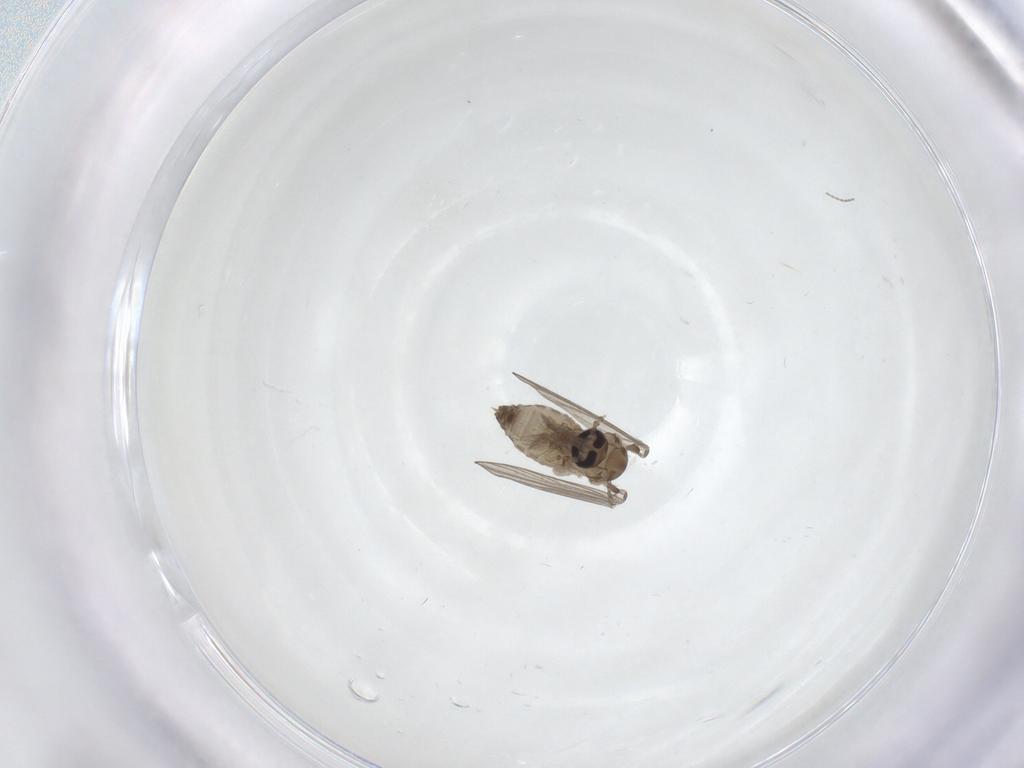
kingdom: Animalia
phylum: Arthropoda
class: Insecta
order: Diptera
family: Psychodidae
